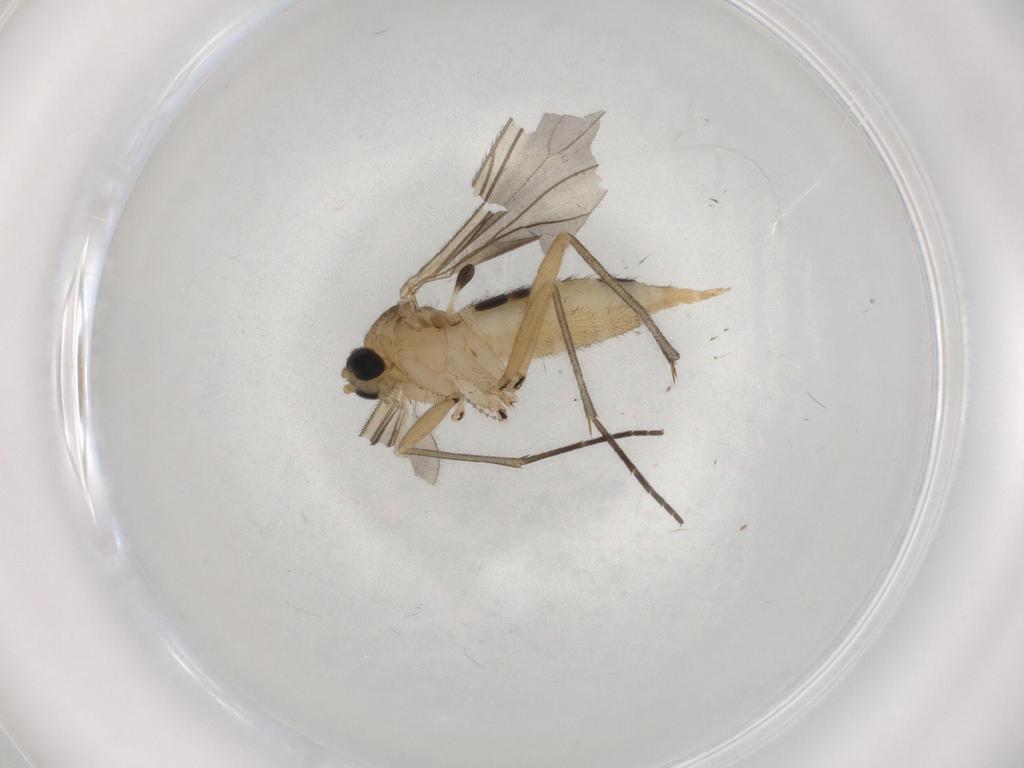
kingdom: Animalia
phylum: Arthropoda
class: Insecta
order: Diptera
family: Sciaridae
